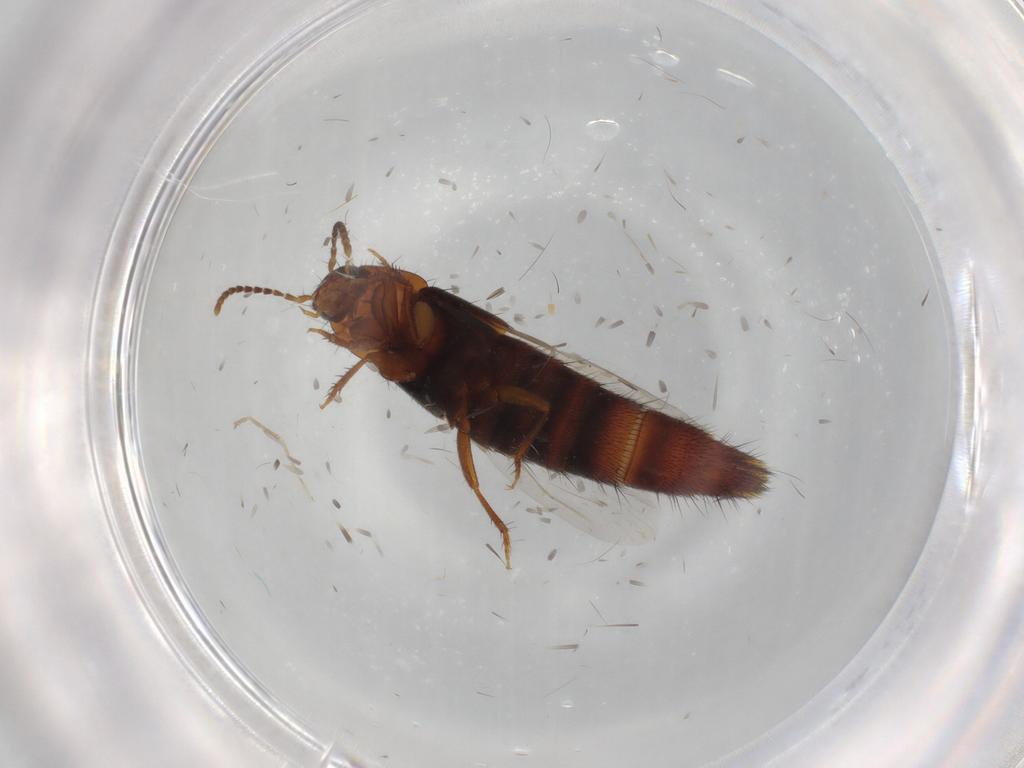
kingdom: Animalia
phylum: Arthropoda
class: Insecta
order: Coleoptera
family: Staphylinidae
